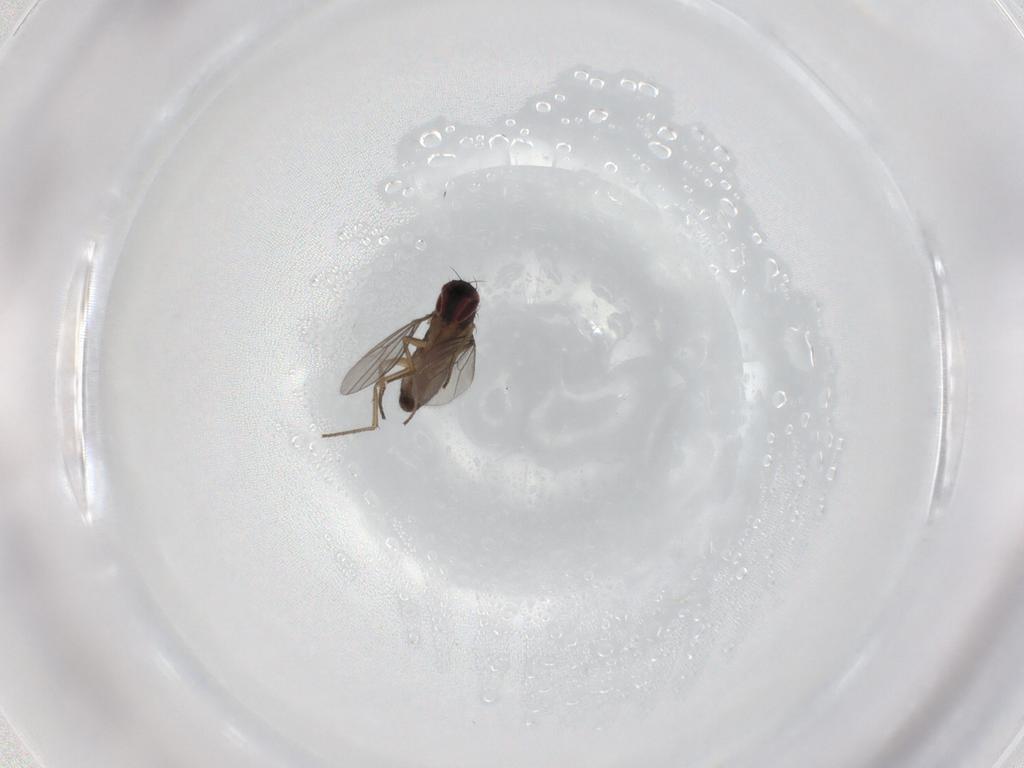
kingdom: Animalia
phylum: Arthropoda
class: Insecta
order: Diptera
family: Dolichopodidae
